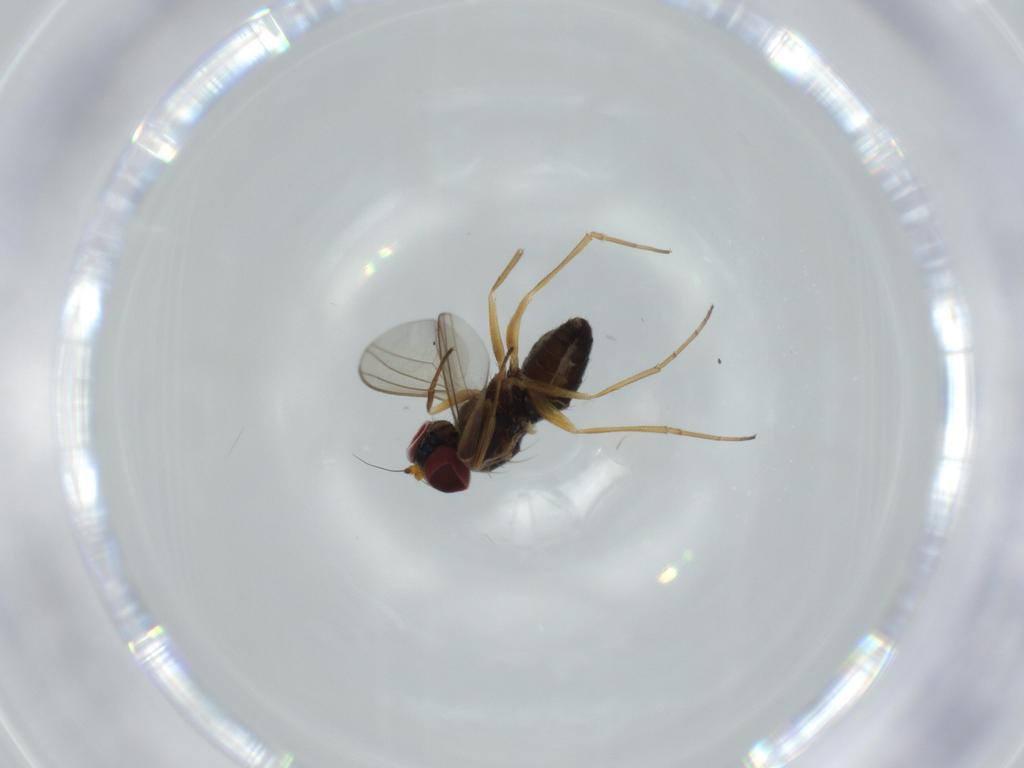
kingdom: Animalia
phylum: Arthropoda
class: Insecta
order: Diptera
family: Dolichopodidae
